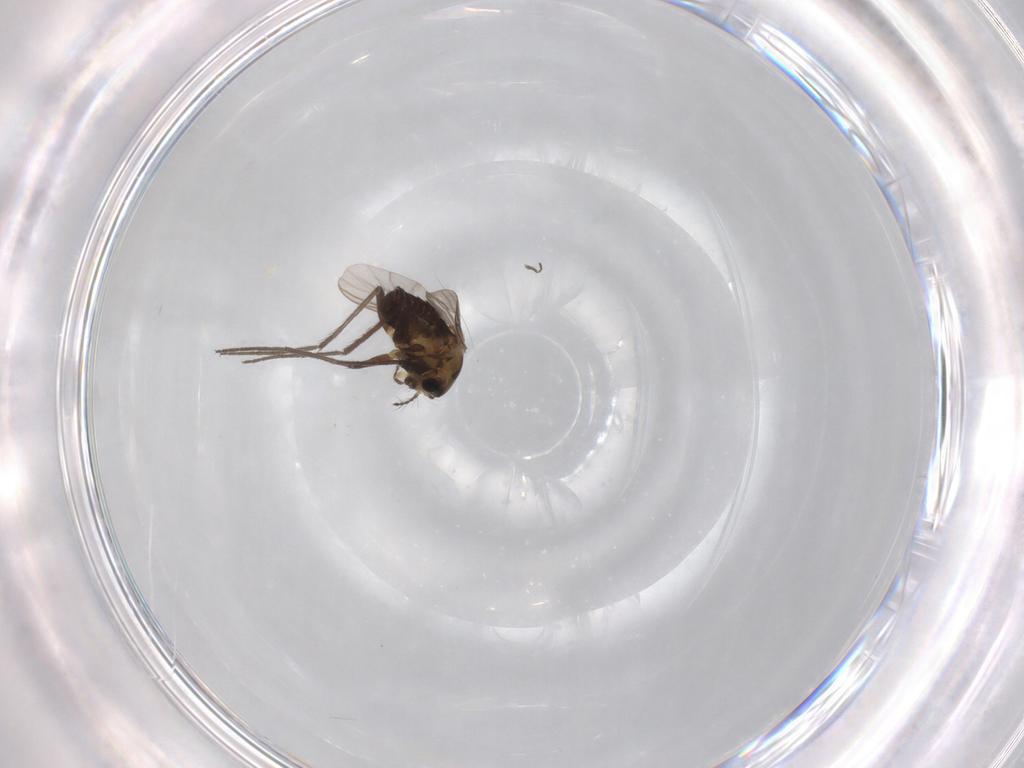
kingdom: Animalia
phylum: Arthropoda
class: Insecta
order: Diptera
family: Chironomidae
